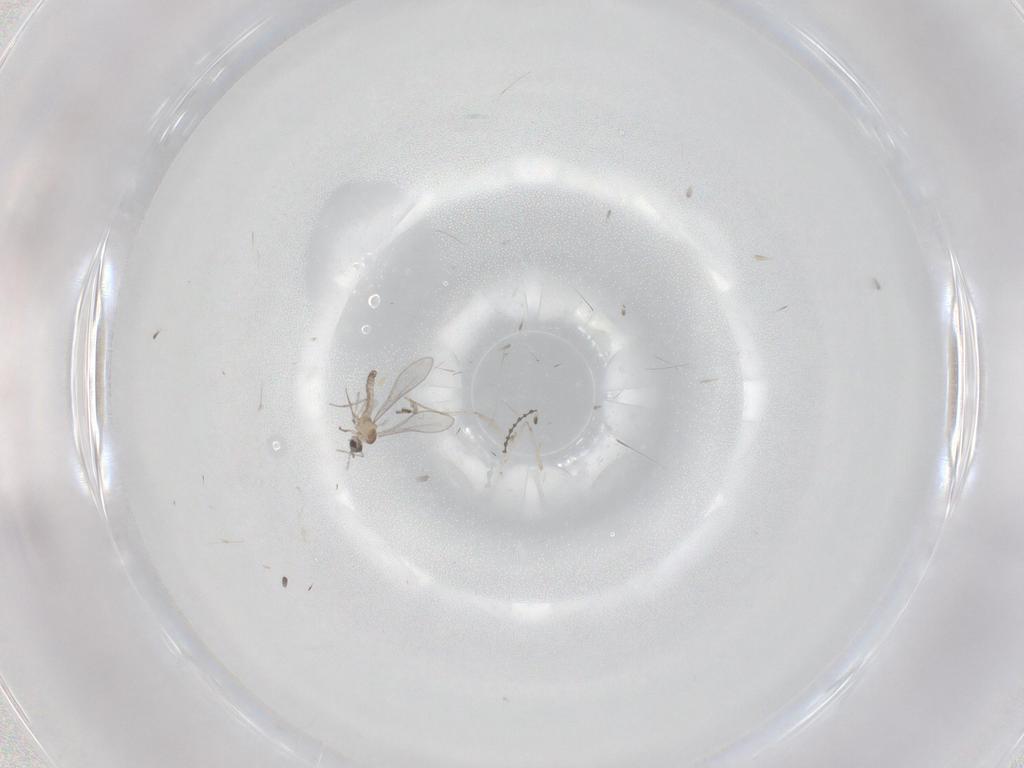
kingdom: Animalia
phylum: Arthropoda
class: Insecta
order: Diptera
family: Cecidomyiidae
